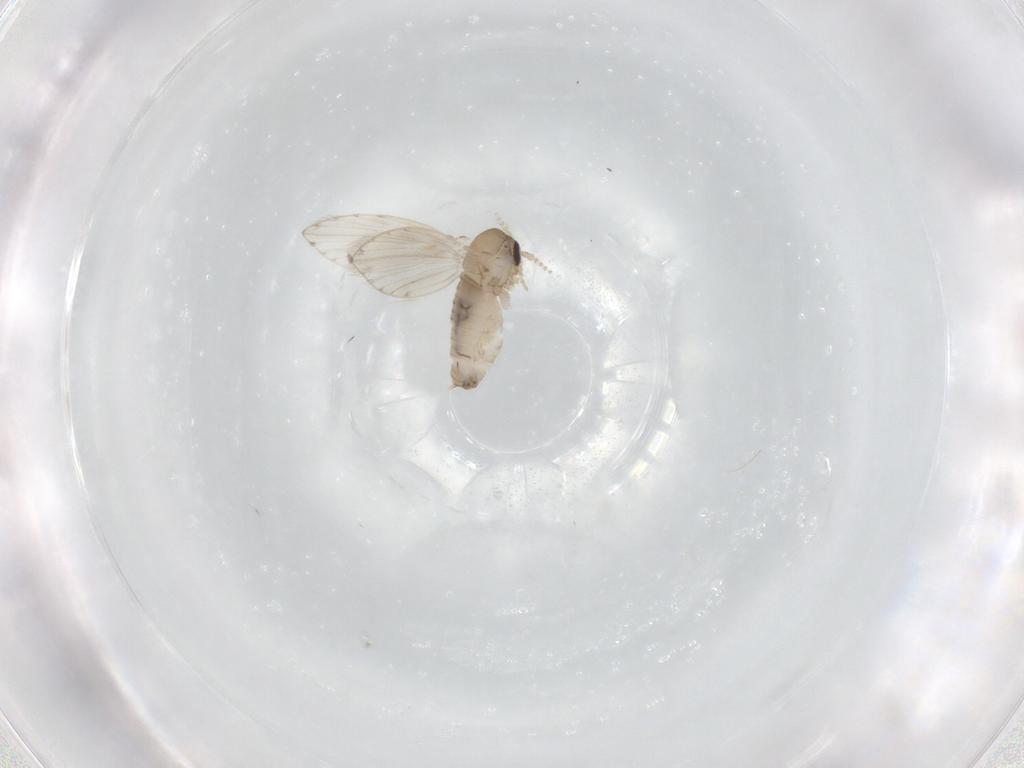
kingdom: Animalia
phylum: Arthropoda
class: Insecta
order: Diptera
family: Psychodidae
